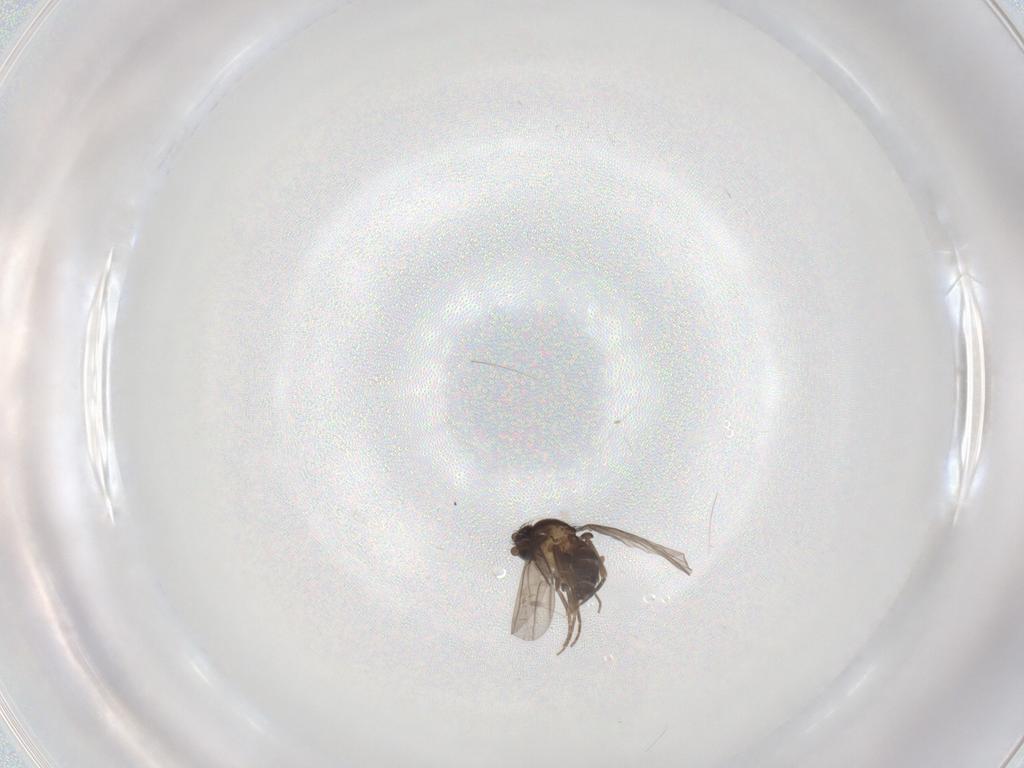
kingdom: Animalia
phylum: Arthropoda
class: Insecta
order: Diptera
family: Phoridae
